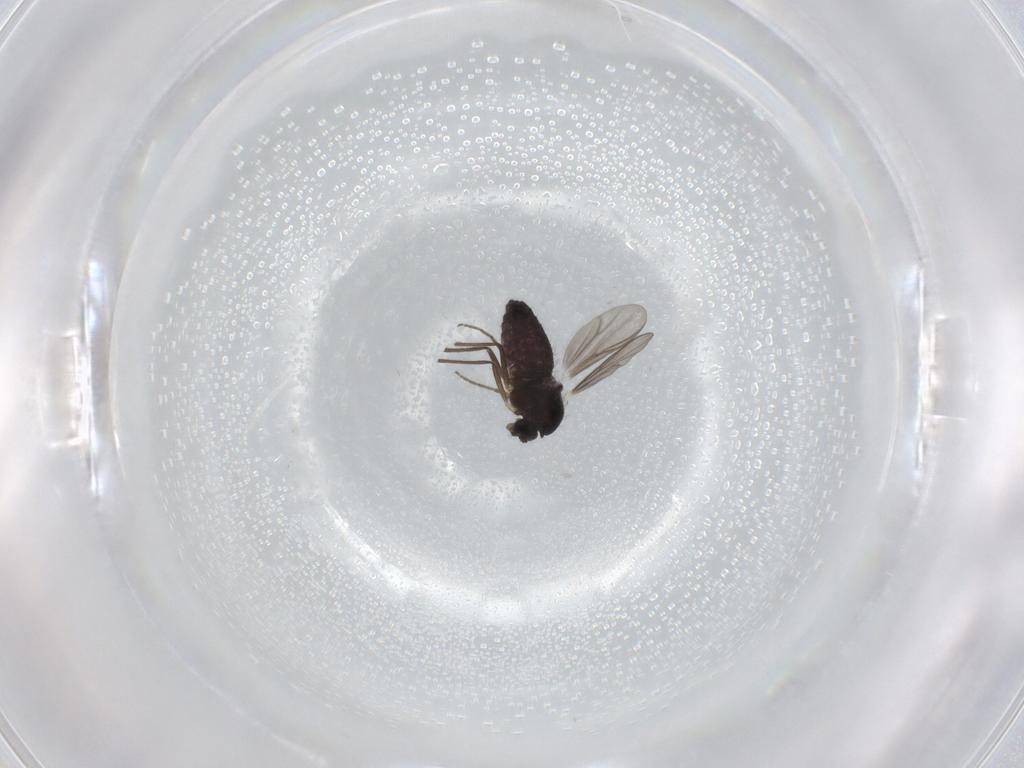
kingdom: Animalia
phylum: Arthropoda
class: Insecta
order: Diptera
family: Chironomidae
